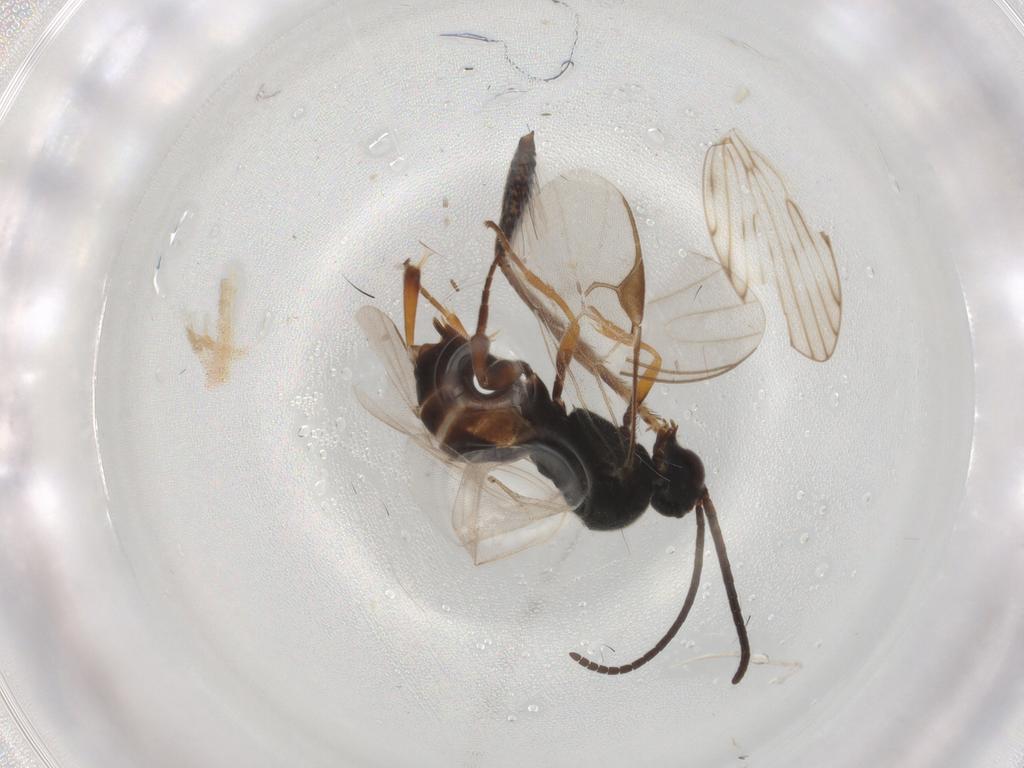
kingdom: Animalia
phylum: Arthropoda
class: Insecta
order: Hymenoptera
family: Braconidae
